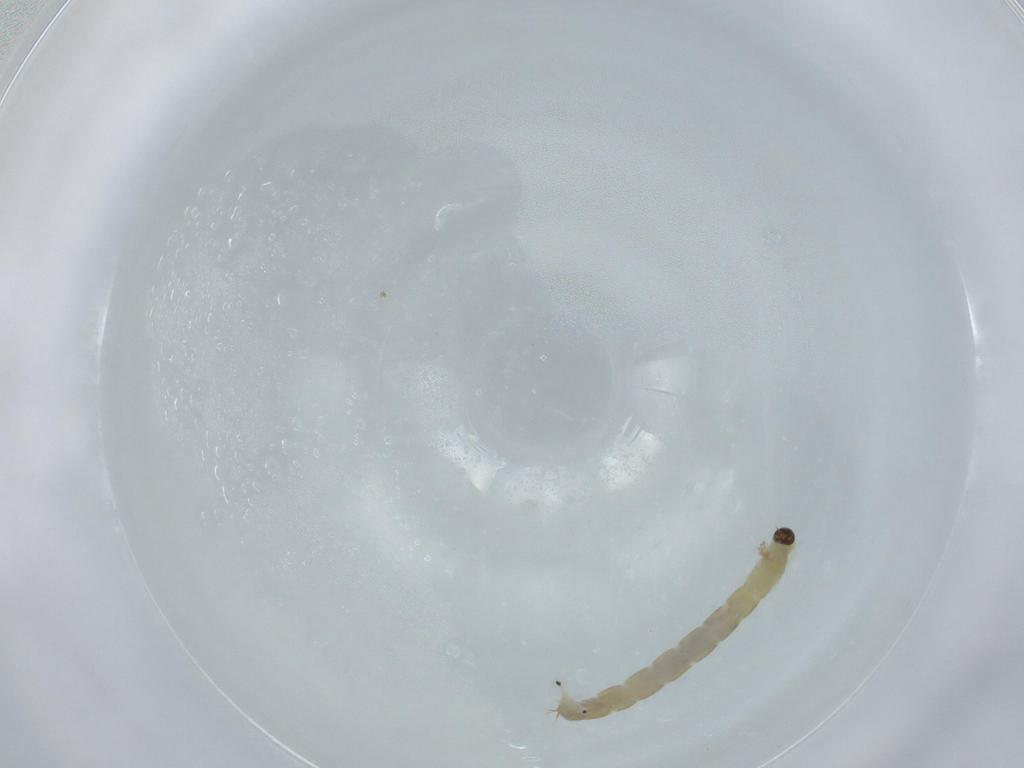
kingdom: Animalia
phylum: Arthropoda
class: Insecta
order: Diptera
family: Chironomidae
